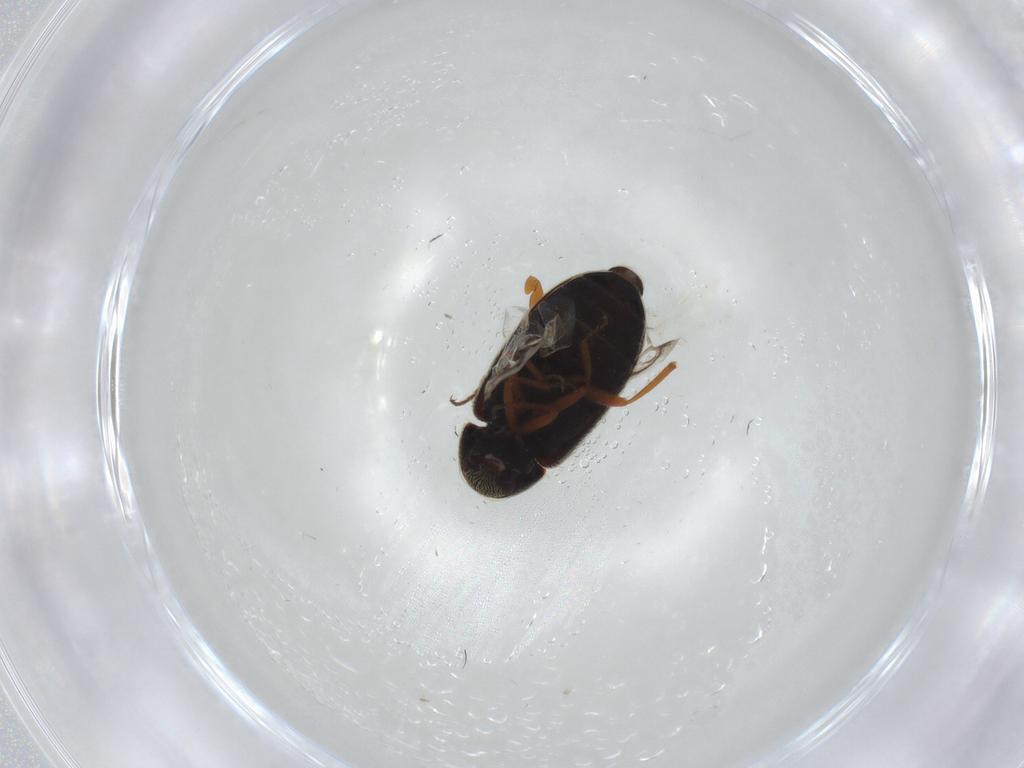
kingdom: Animalia
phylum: Arthropoda
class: Insecta
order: Coleoptera
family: Rhadalidae
